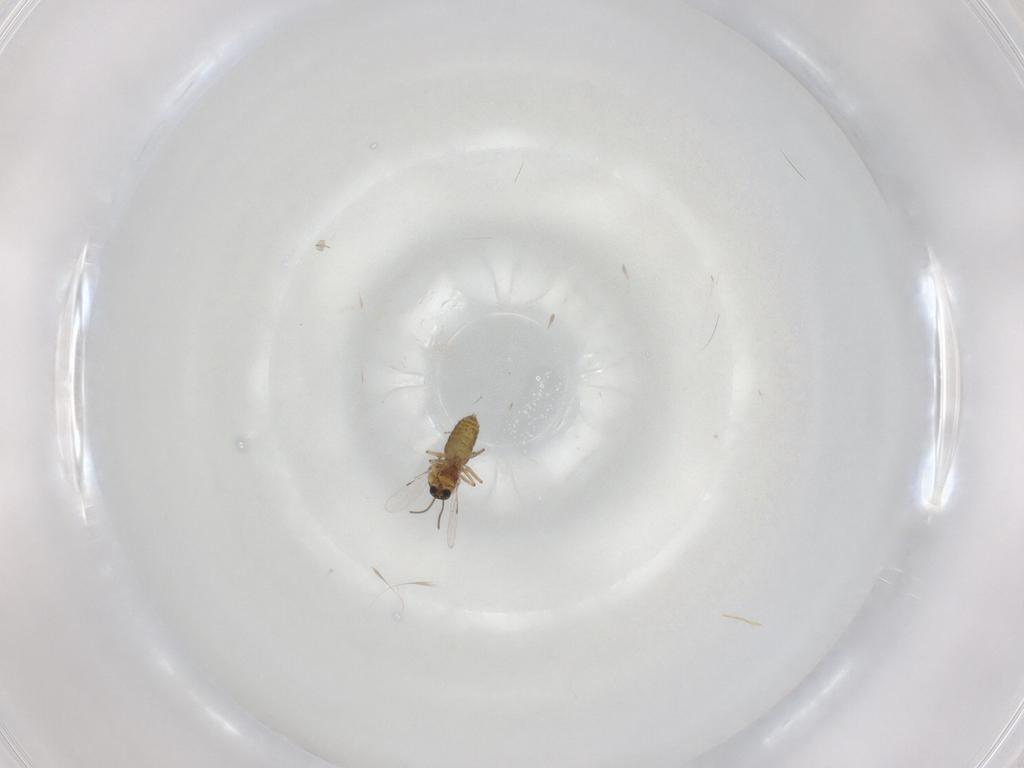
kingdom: Animalia
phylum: Arthropoda
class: Insecta
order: Diptera
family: Ceratopogonidae
